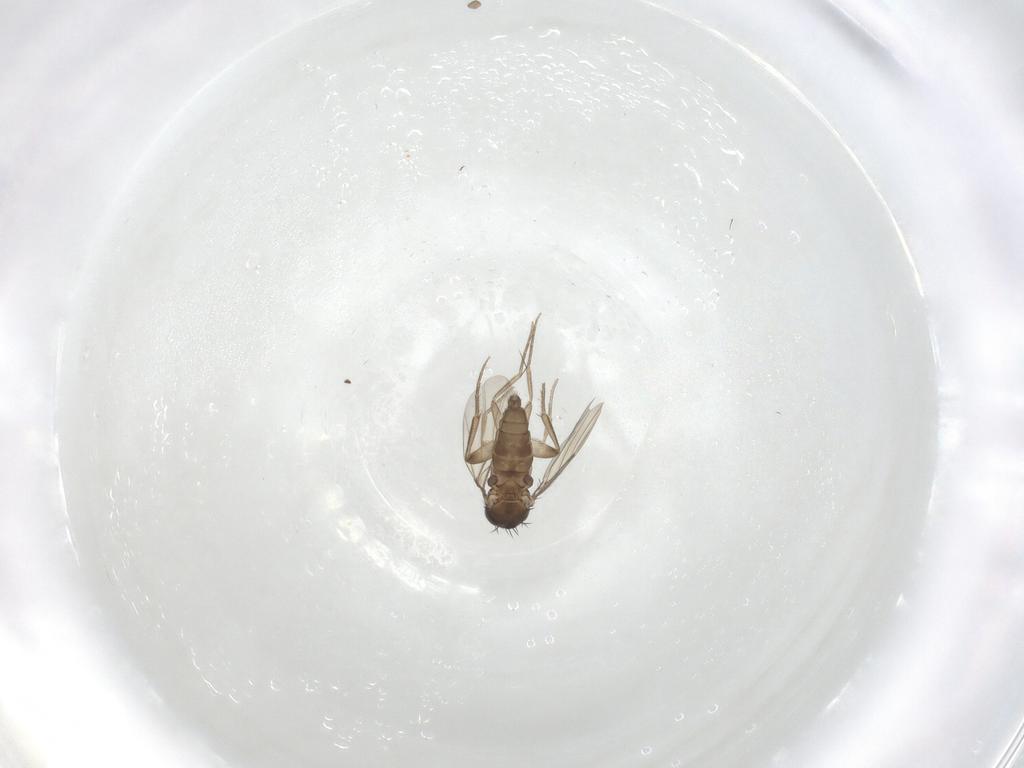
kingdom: Animalia
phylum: Arthropoda
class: Insecta
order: Diptera
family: Phoridae
